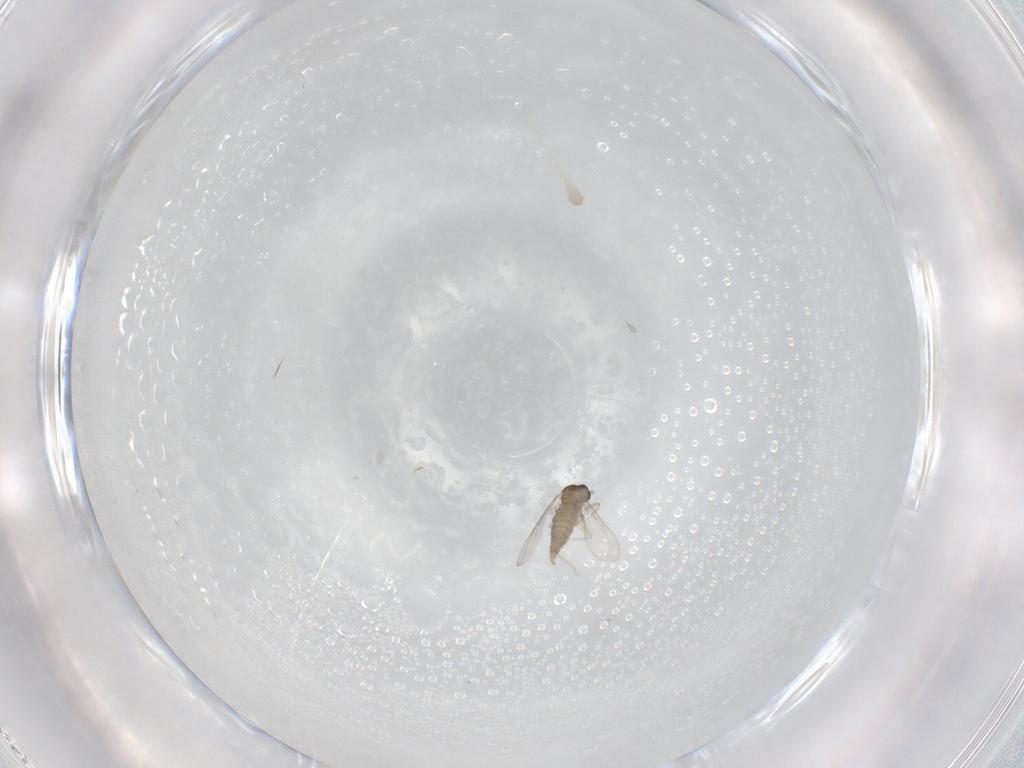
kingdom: Animalia
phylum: Arthropoda
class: Insecta
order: Diptera
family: Cecidomyiidae
